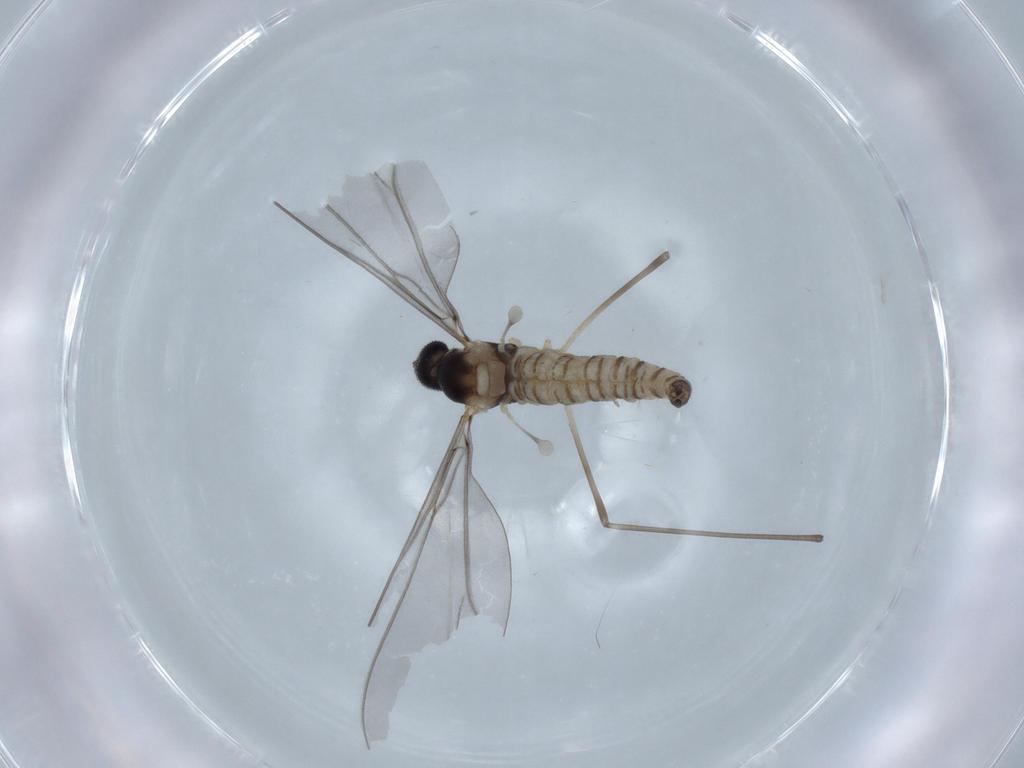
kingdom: Animalia
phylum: Arthropoda
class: Insecta
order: Diptera
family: Cecidomyiidae
